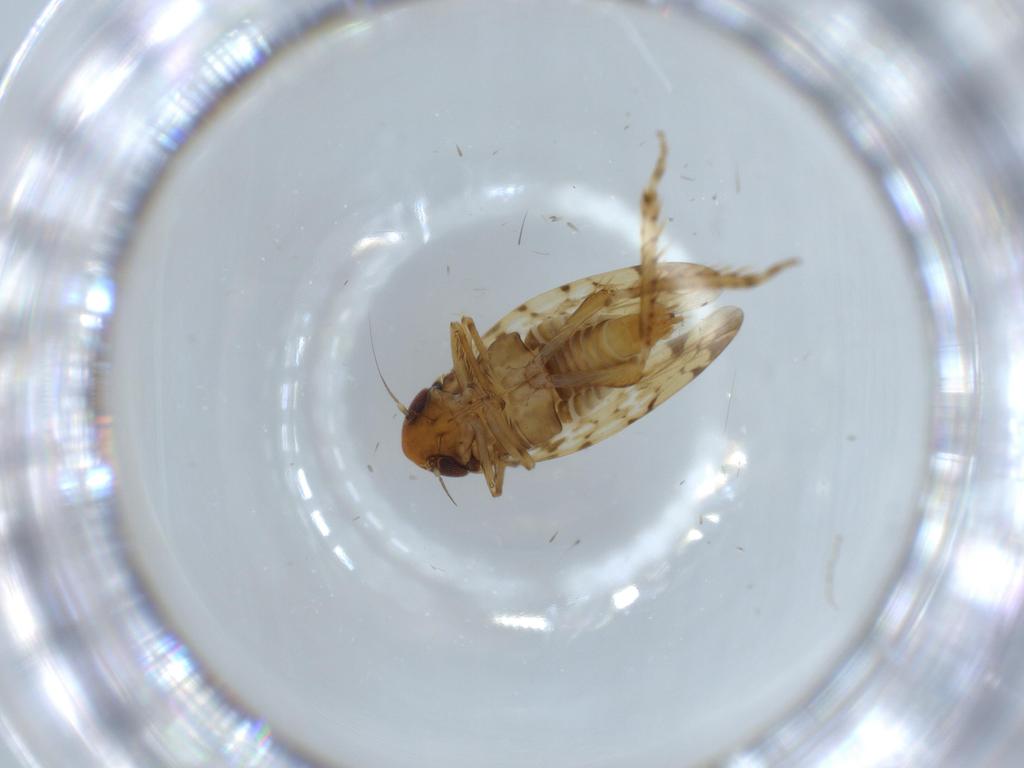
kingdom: Animalia
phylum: Arthropoda
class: Insecta
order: Hemiptera
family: Cicadellidae
